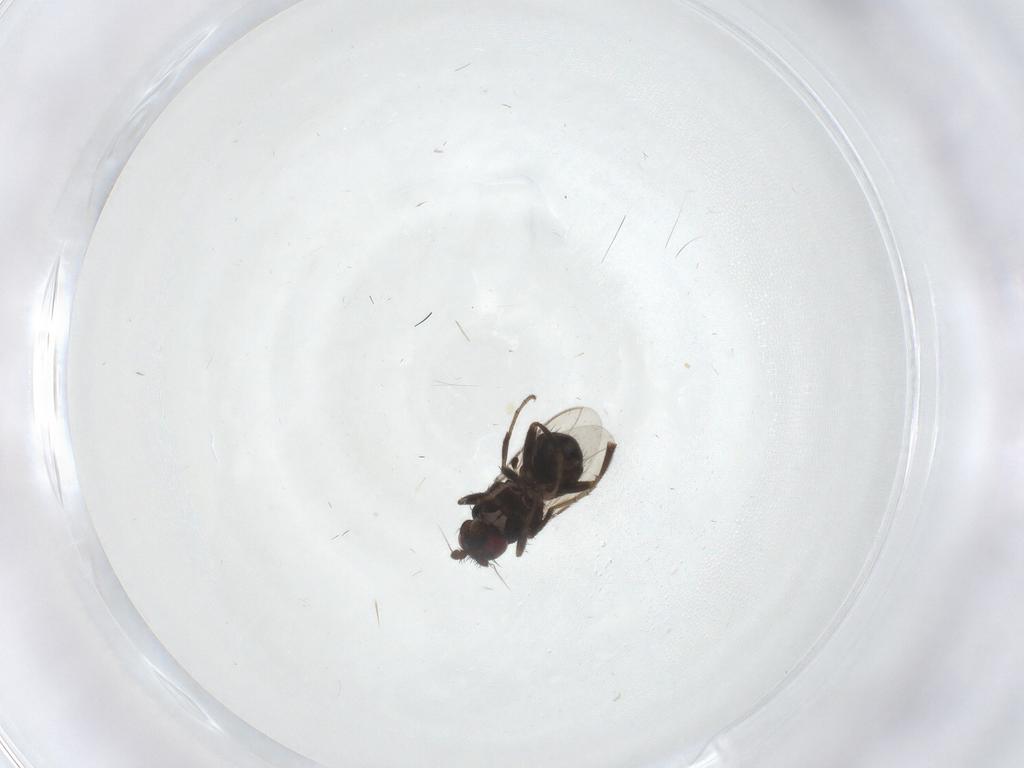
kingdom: Animalia
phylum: Arthropoda
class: Insecta
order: Diptera
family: Sphaeroceridae
